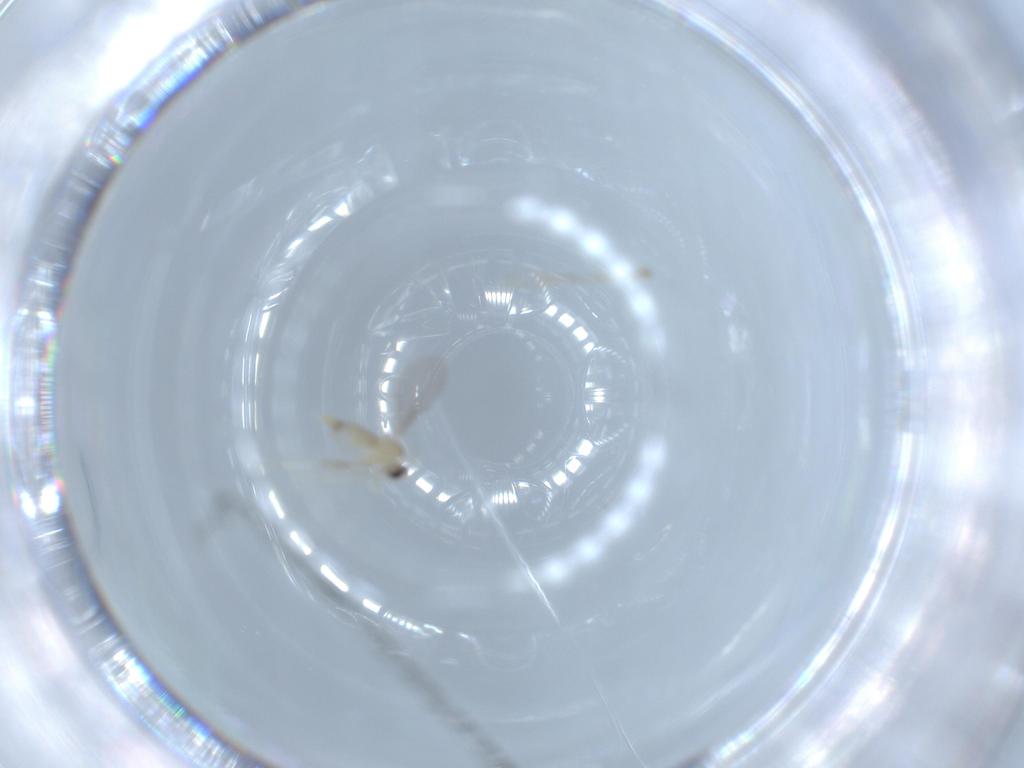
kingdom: Animalia
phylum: Arthropoda
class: Insecta
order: Diptera
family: Cecidomyiidae
